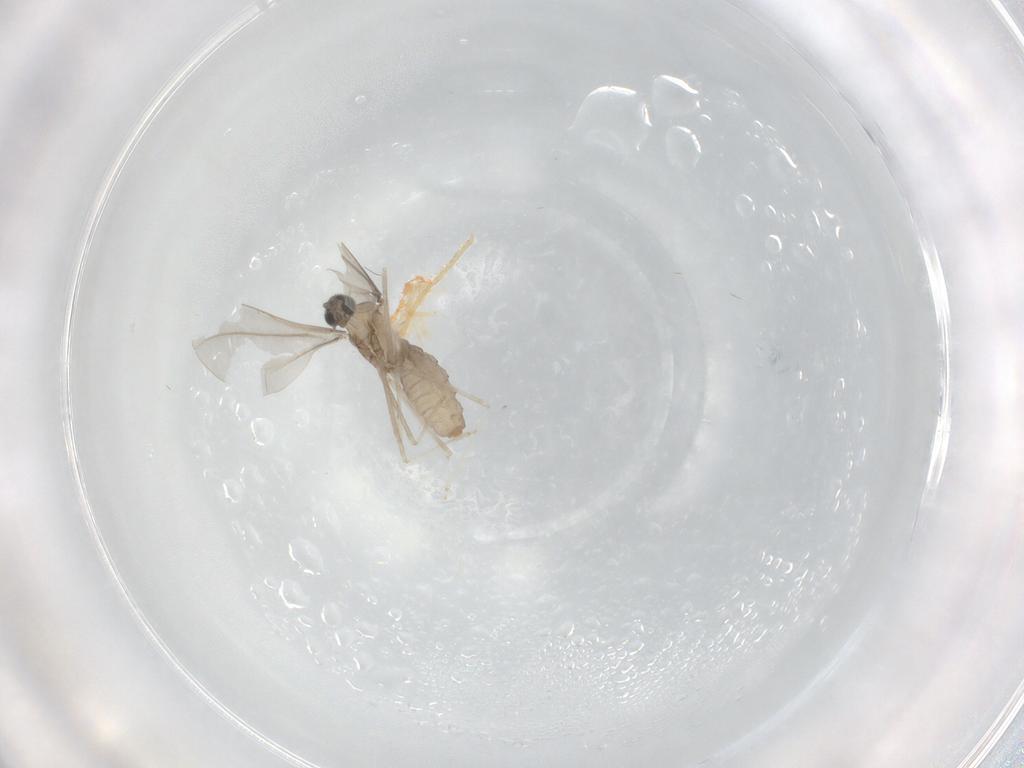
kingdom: Animalia
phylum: Arthropoda
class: Insecta
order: Diptera
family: Cecidomyiidae
